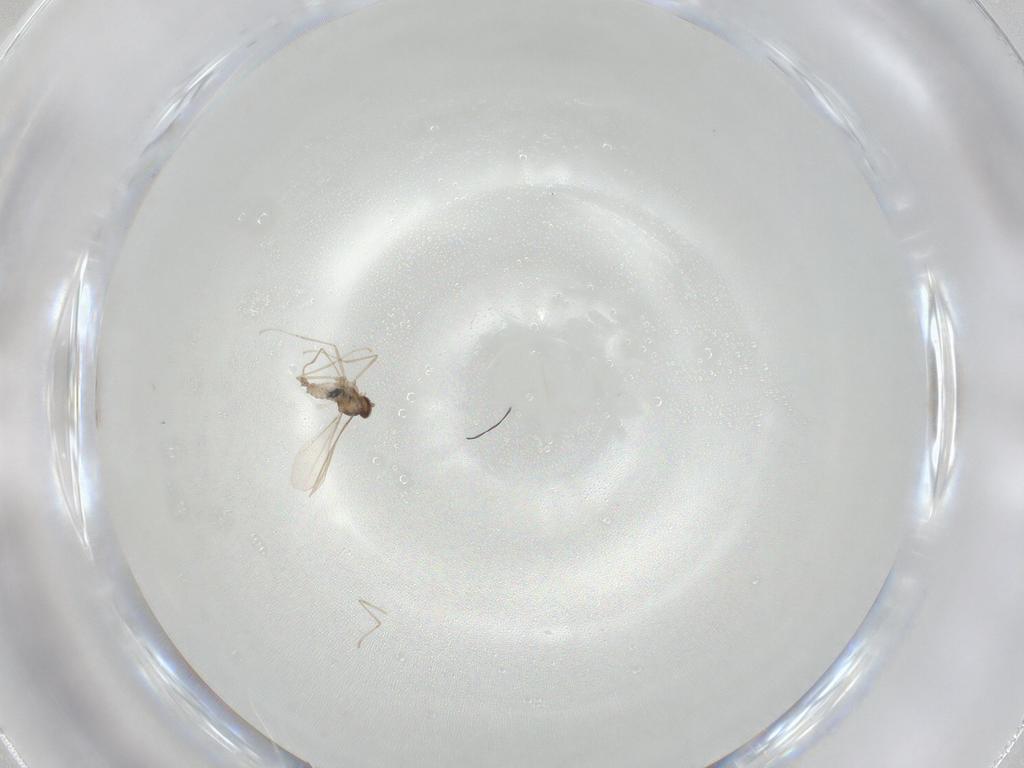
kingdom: Animalia
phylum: Arthropoda
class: Insecta
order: Diptera
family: Cecidomyiidae
